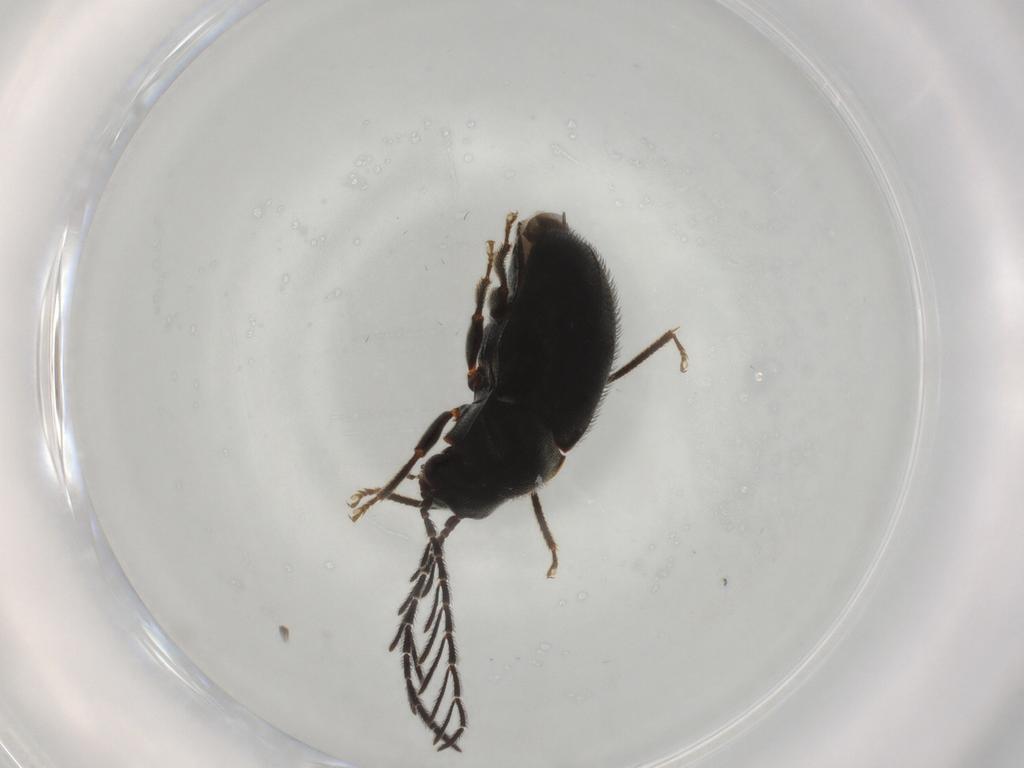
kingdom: Animalia
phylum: Arthropoda
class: Insecta
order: Coleoptera
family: Ptilodactylidae
